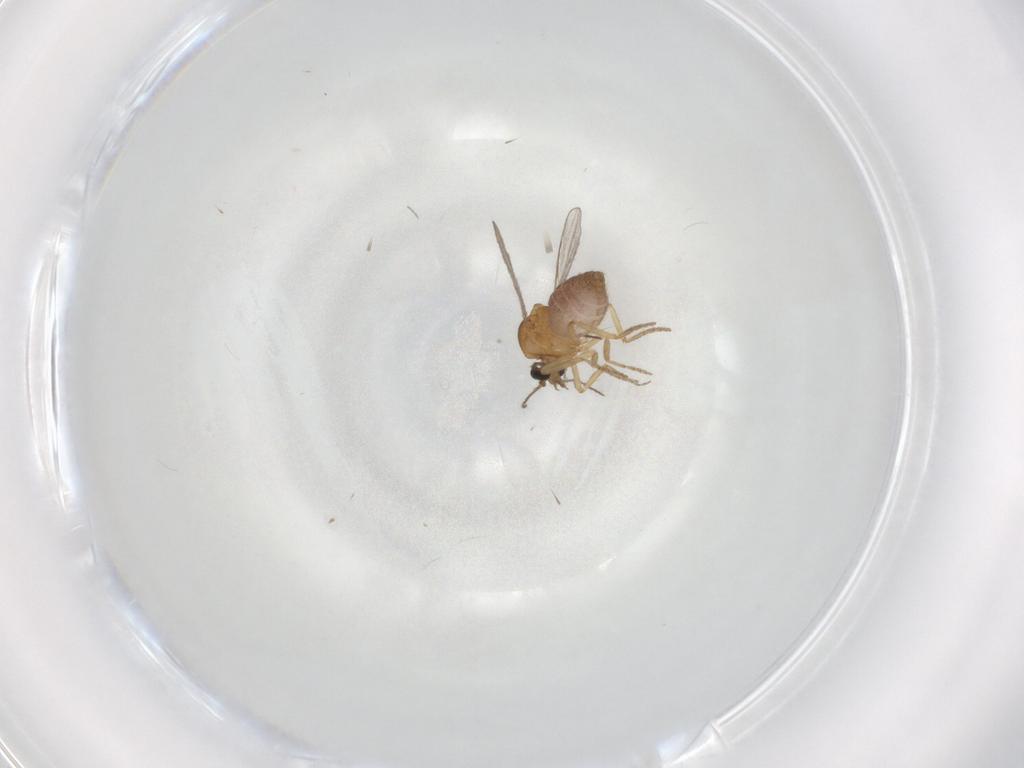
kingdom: Animalia
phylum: Arthropoda
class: Insecta
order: Diptera
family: Chironomidae
